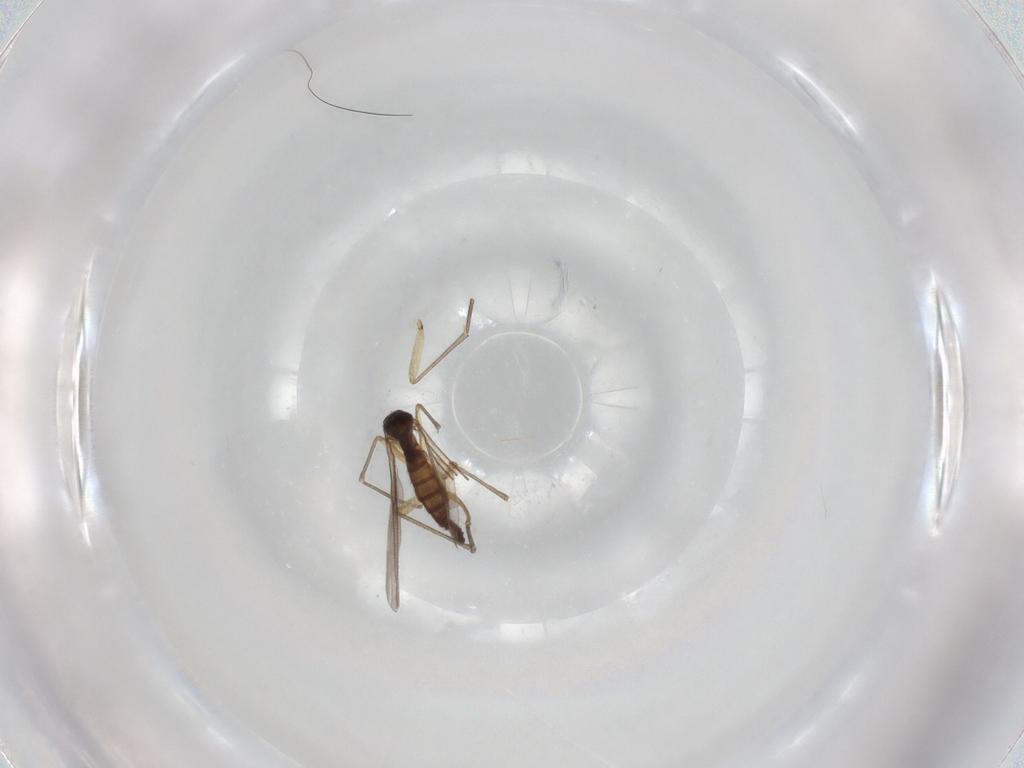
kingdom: Animalia
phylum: Arthropoda
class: Insecta
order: Diptera
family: Sciaridae
